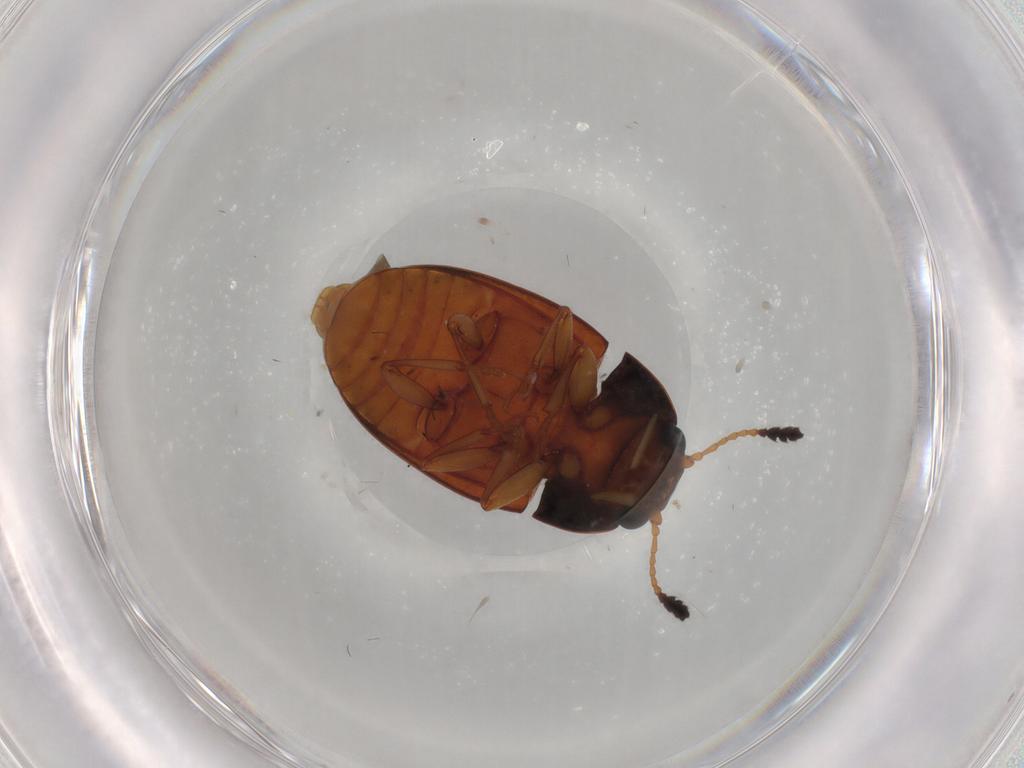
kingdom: Animalia
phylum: Arthropoda
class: Insecta
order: Coleoptera
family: Erotylidae
